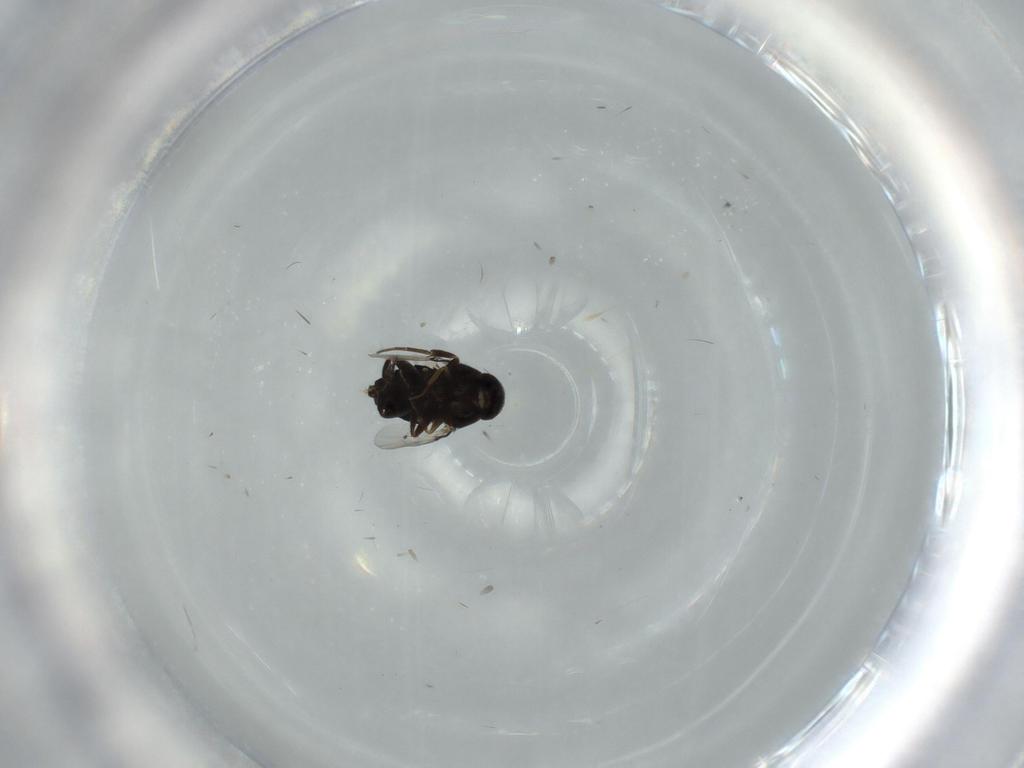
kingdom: Animalia
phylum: Arthropoda
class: Insecta
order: Diptera
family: Phoridae
